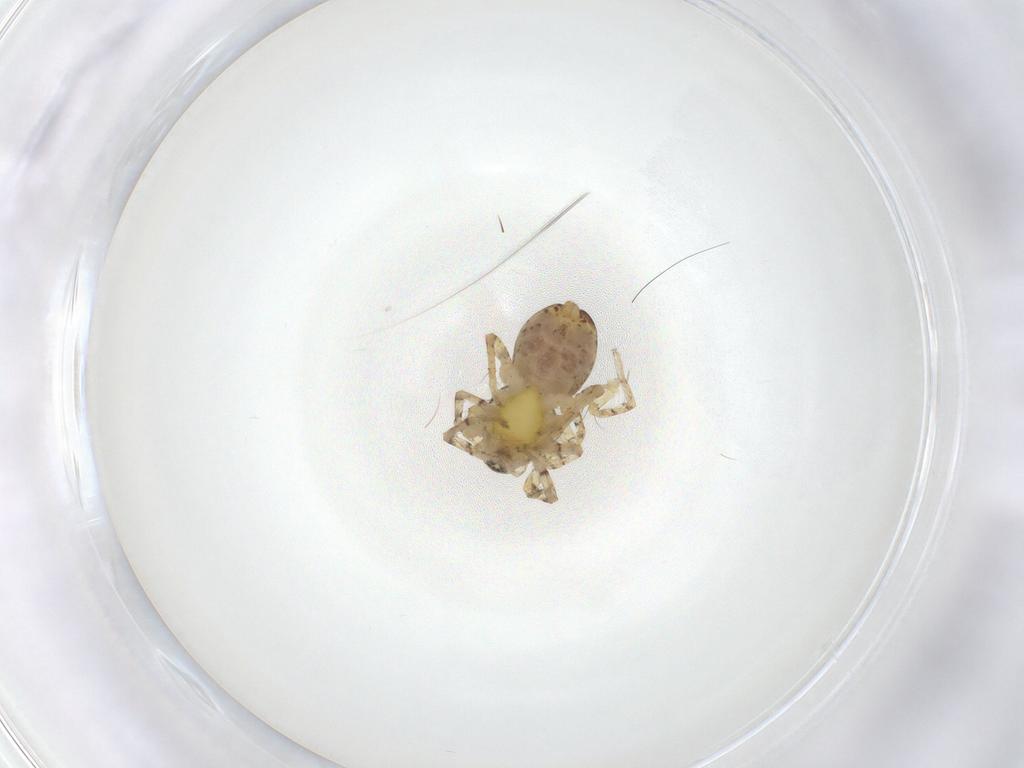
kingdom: Animalia
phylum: Arthropoda
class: Arachnida
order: Araneae
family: Anyphaenidae
